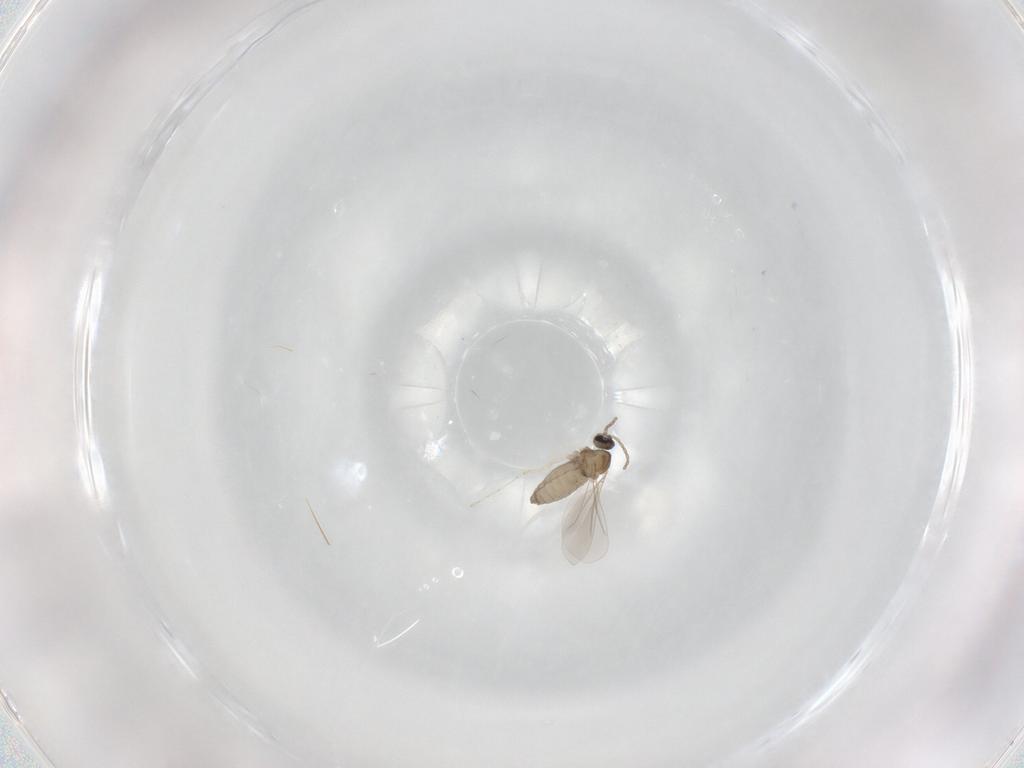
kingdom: Animalia
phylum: Arthropoda
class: Insecta
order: Diptera
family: Stratiomyidae
